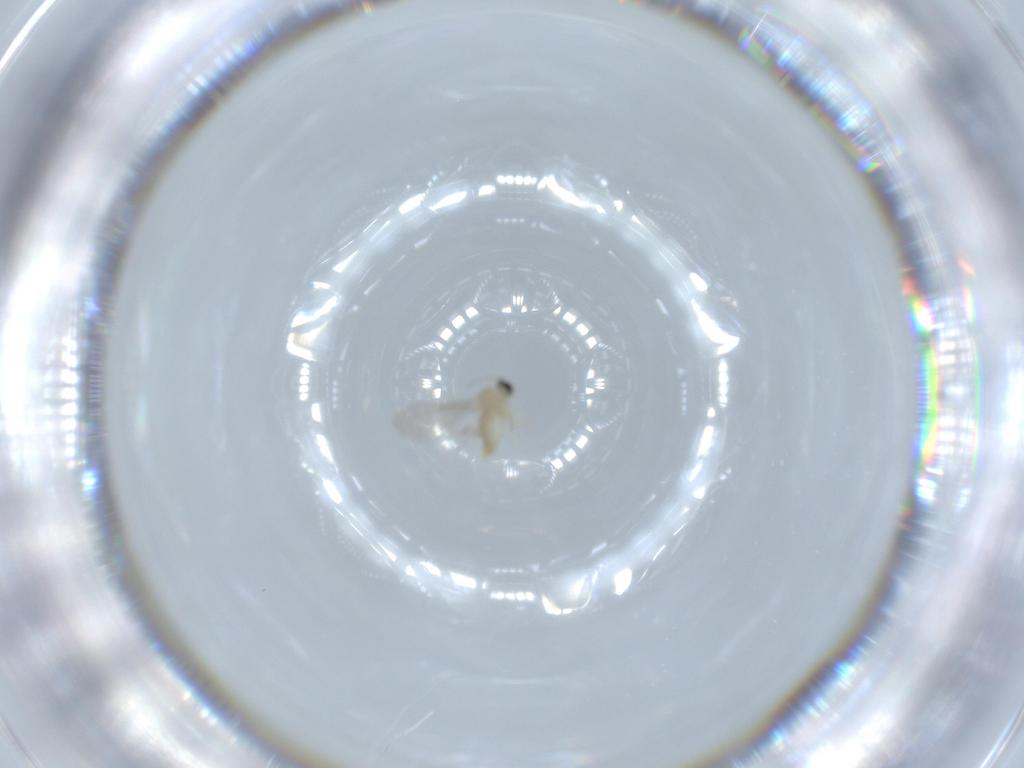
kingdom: Animalia
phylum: Arthropoda
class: Insecta
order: Diptera
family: Cecidomyiidae
